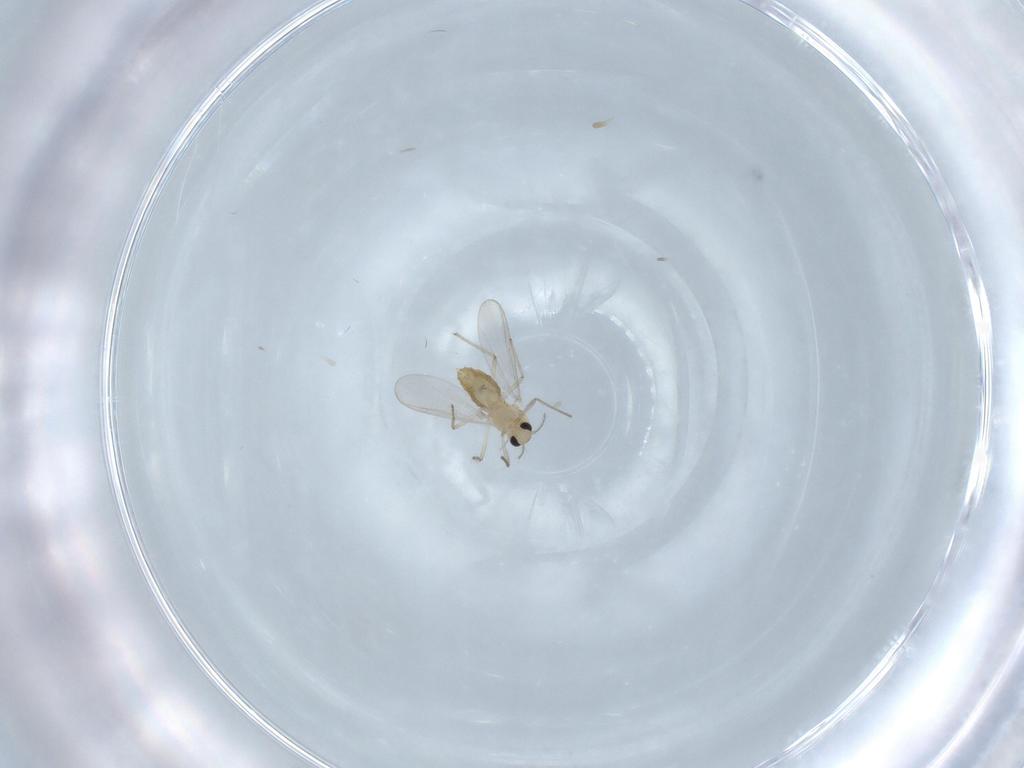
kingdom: Animalia
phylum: Arthropoda
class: Insecta
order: Diptera
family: Chironomidae
